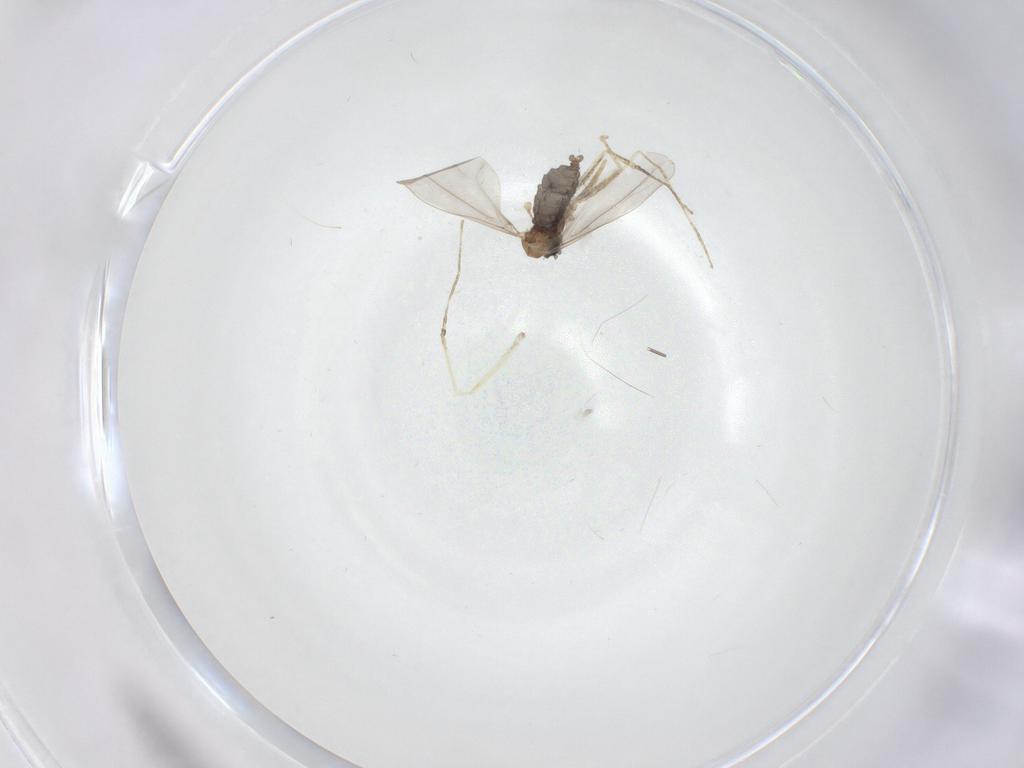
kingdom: Animalia
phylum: Arthropoda
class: Insecta
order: Diptera
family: Cecidomyiidae
